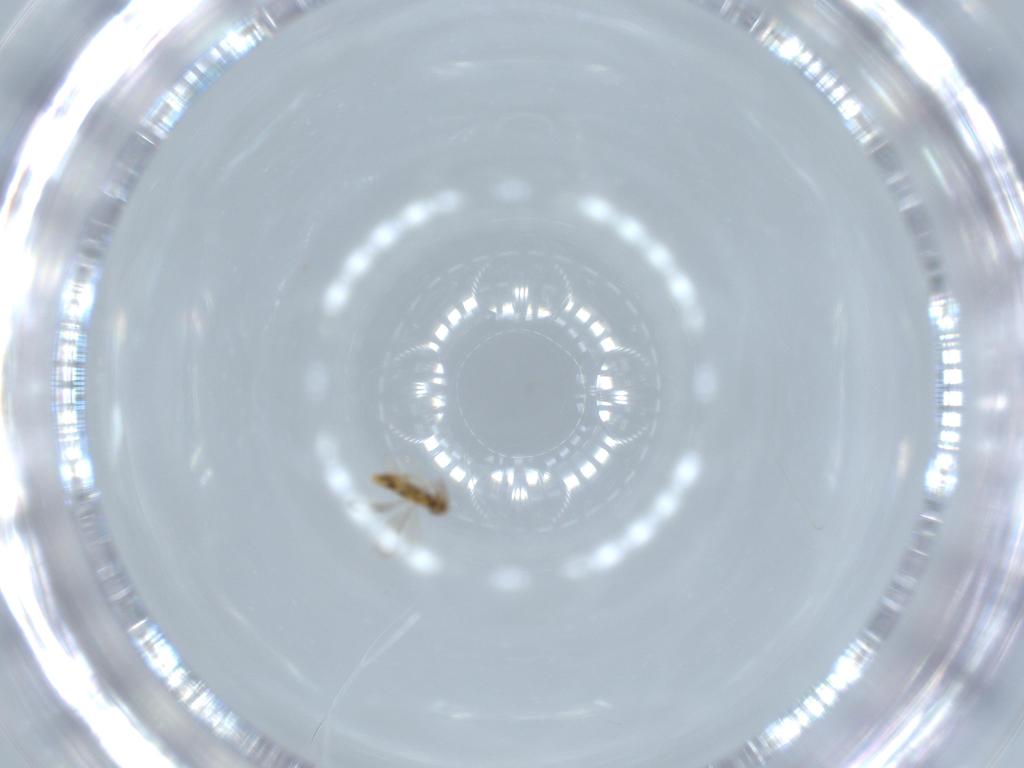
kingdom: Animalia
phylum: Arthropoda
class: Insecta
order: Hymenoptera
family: Aphelinidae
